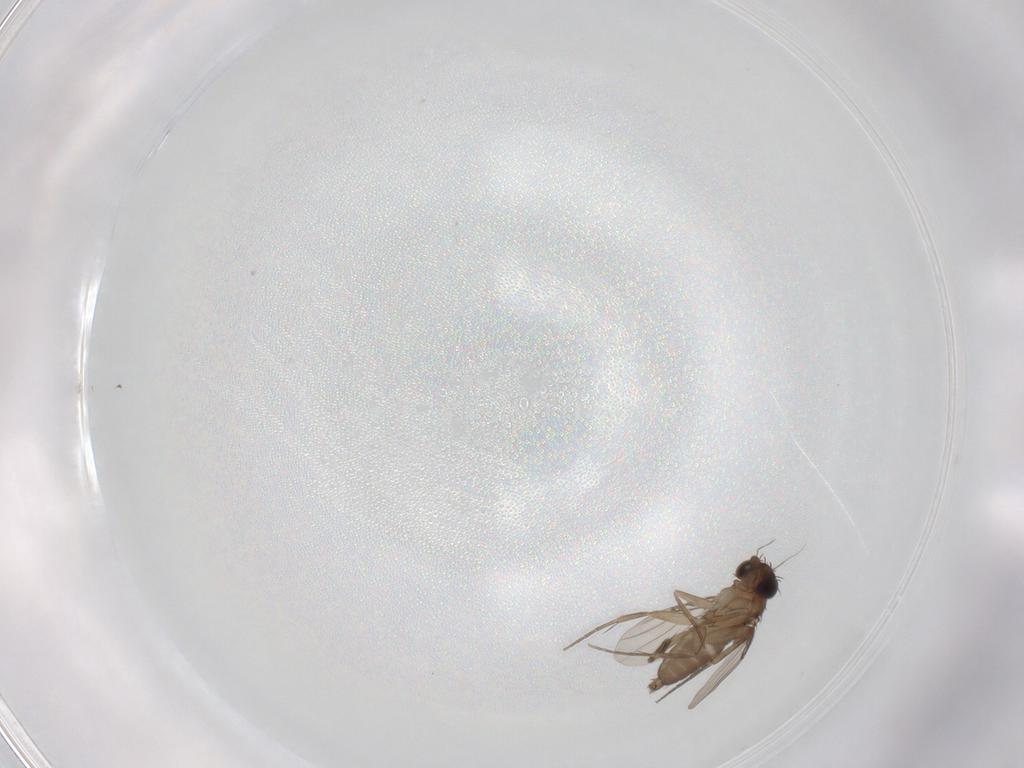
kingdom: Animalia
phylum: Arthropoda
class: Insecta
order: Diptera
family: Phoridae
